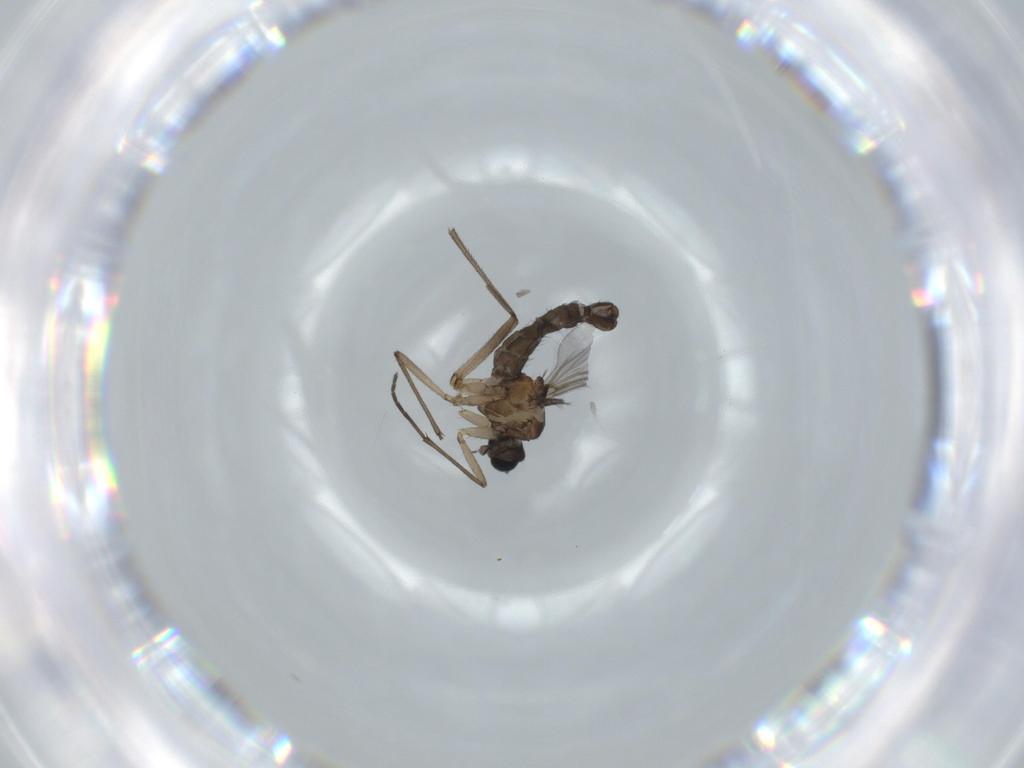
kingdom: Animalia
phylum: Arthropoda
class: Insecta
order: Diptera
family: Sciaridae
